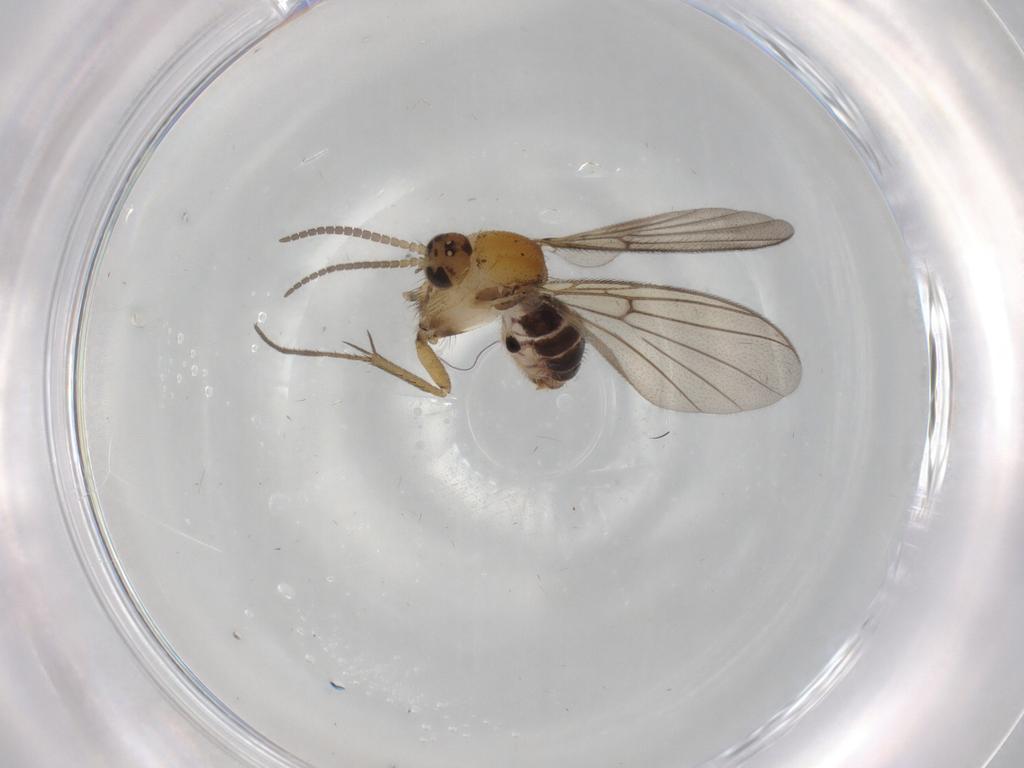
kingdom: Animalia
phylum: Arthropoda
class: Insecta
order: Diptera
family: Mycetophilidae
